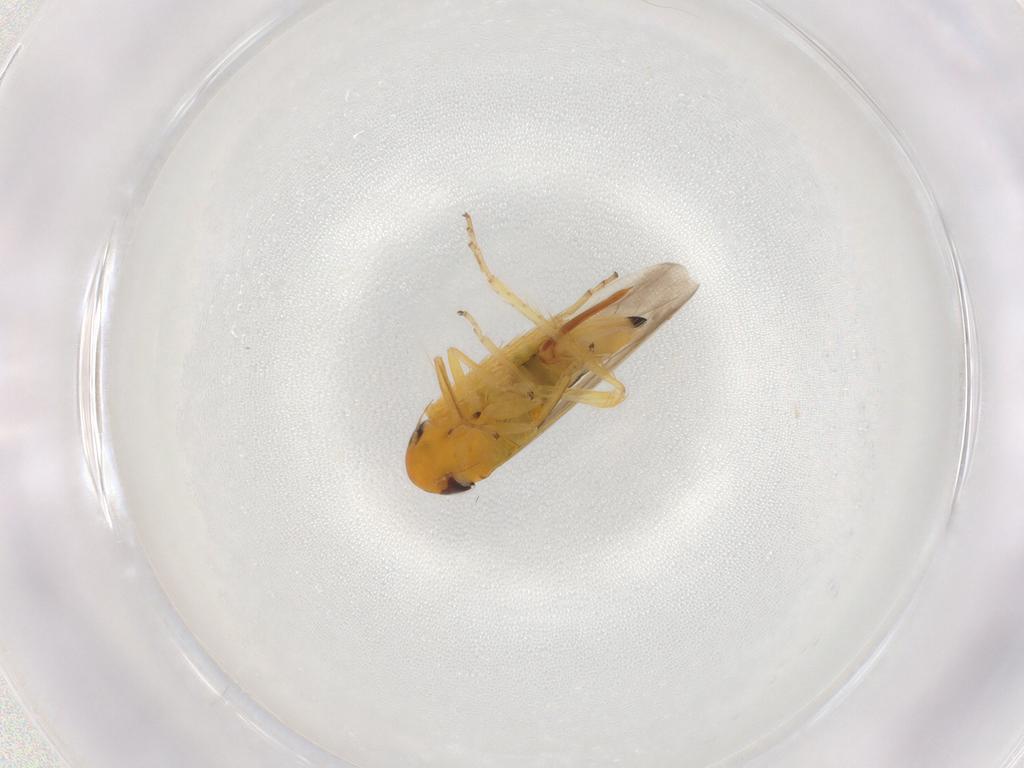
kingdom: Animalia
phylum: Arthropoda
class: Insecta
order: Hemiptera
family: Cicadellidae
